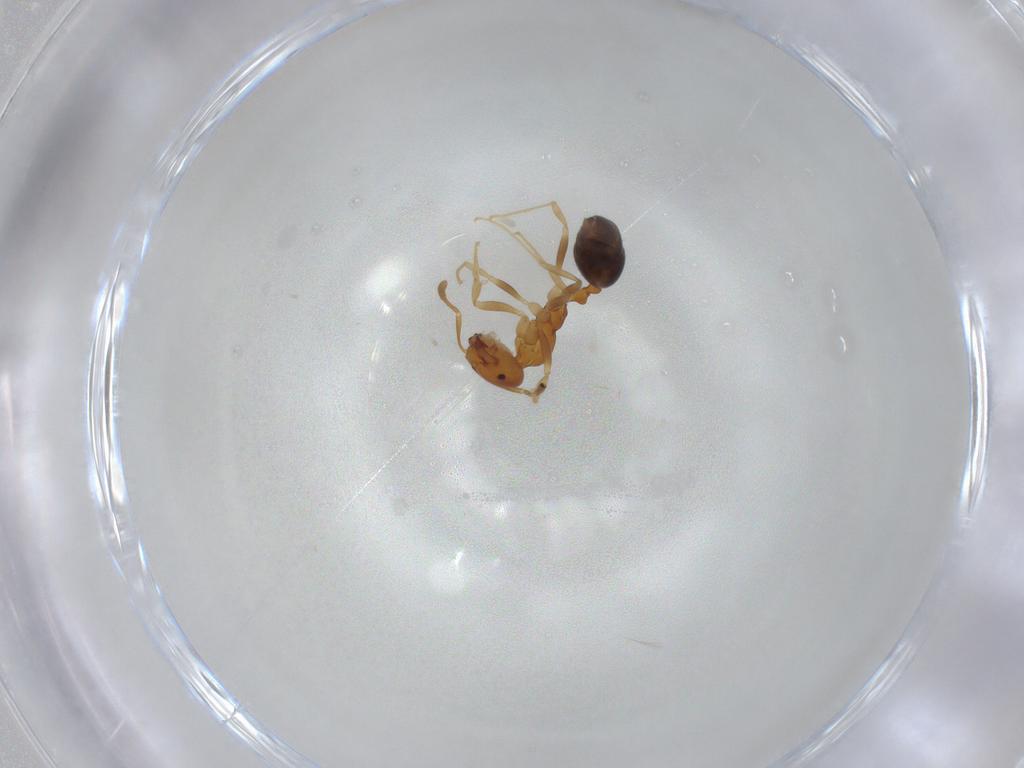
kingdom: Animalia
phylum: Arthropoda
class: Insecta
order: Hymenoptera
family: Formicidae
